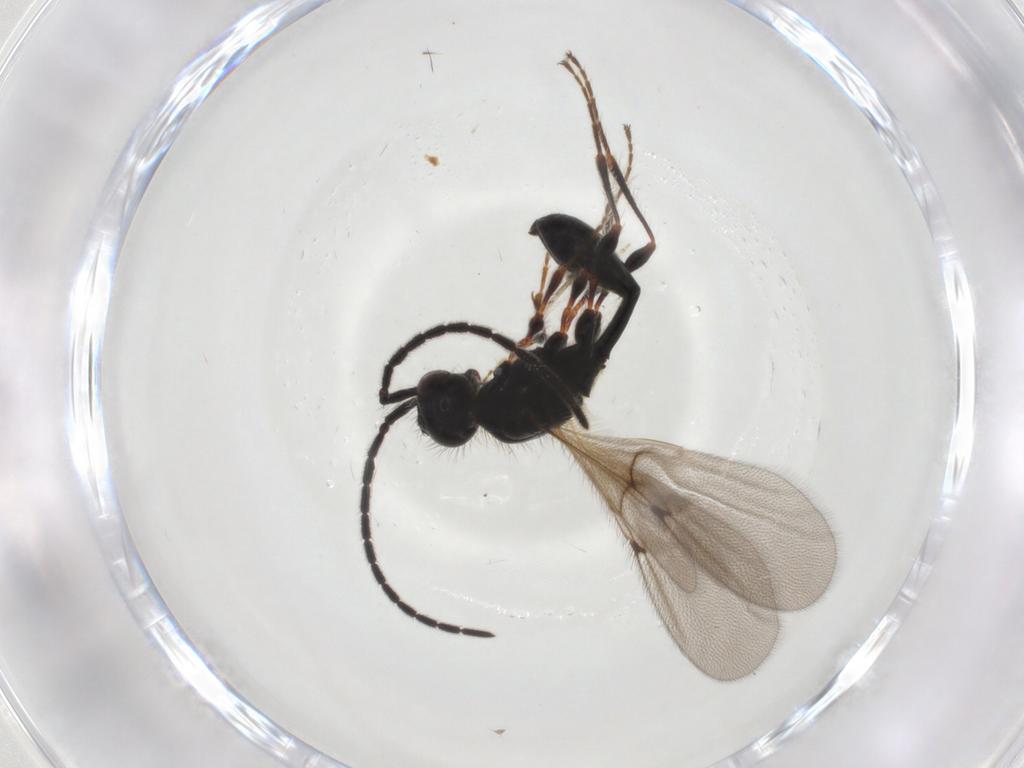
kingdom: Animalia
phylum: Arthropoda
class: Insecta
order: Hymenoptera
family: Diapriidae
